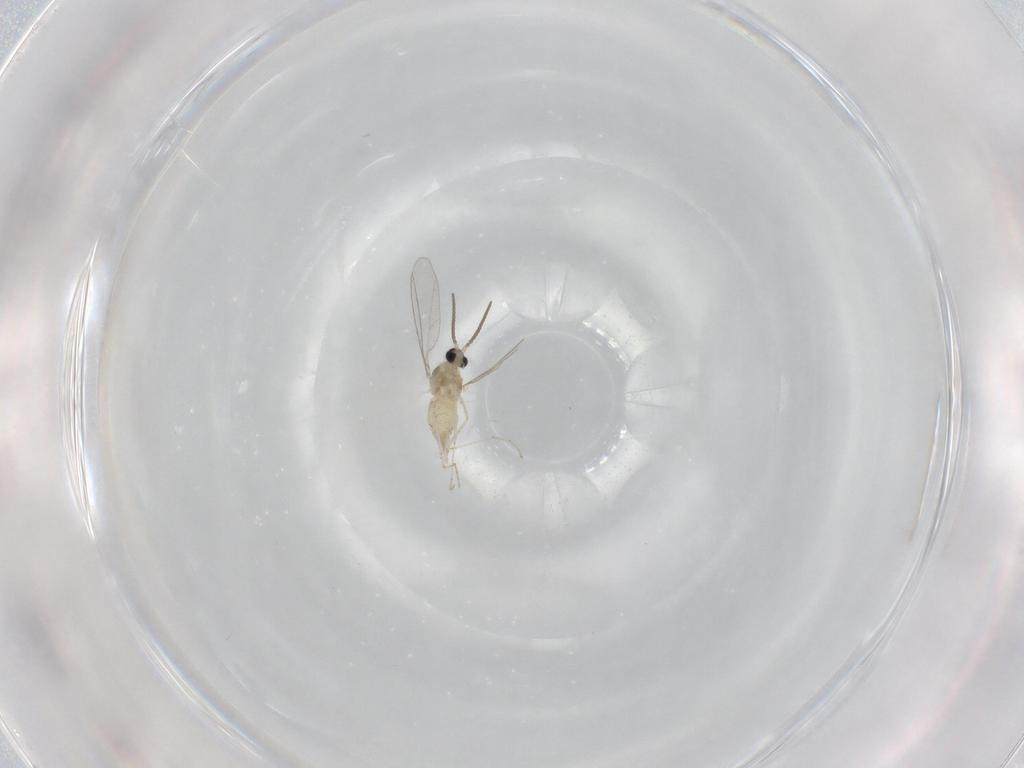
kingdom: Animalia
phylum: Arthropoda
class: Insecta
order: Diptera
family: Cecidomyiidae
